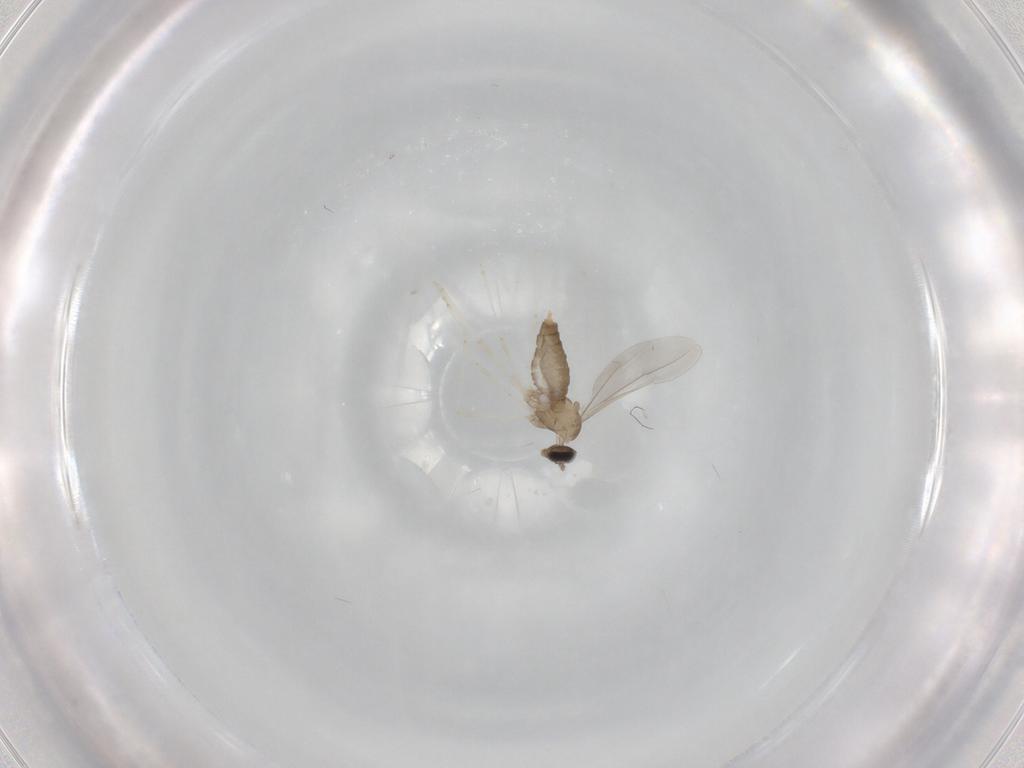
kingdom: Animalia
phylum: Arthropoda
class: Insecta
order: Diptera
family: Cecidomyiidae
